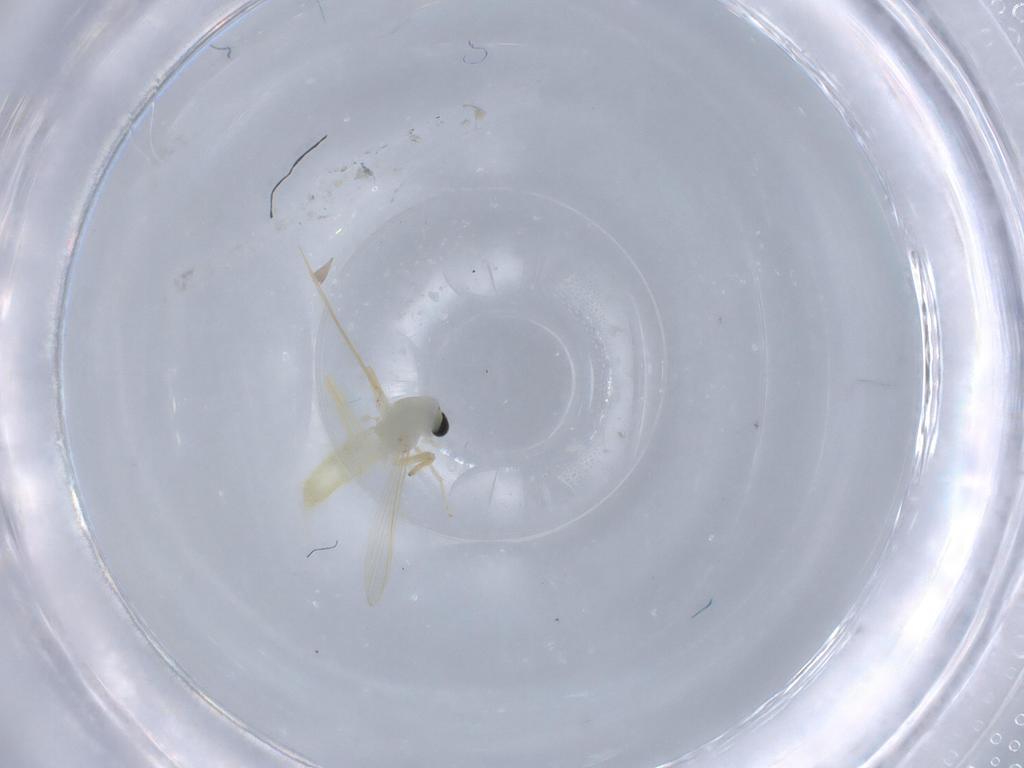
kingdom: Animalia
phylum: Arthropoda
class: Insecta
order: Diptera
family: Chironomidae
